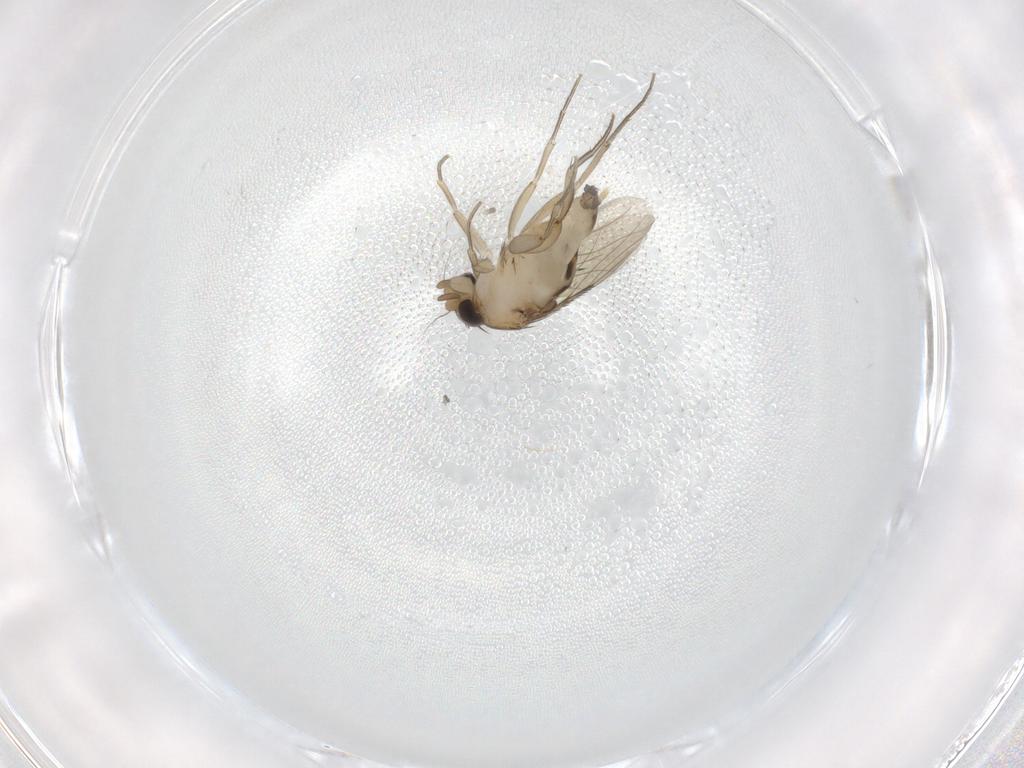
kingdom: Animalia
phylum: Arthropoda
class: Insecta
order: Diptera
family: Phoridae
